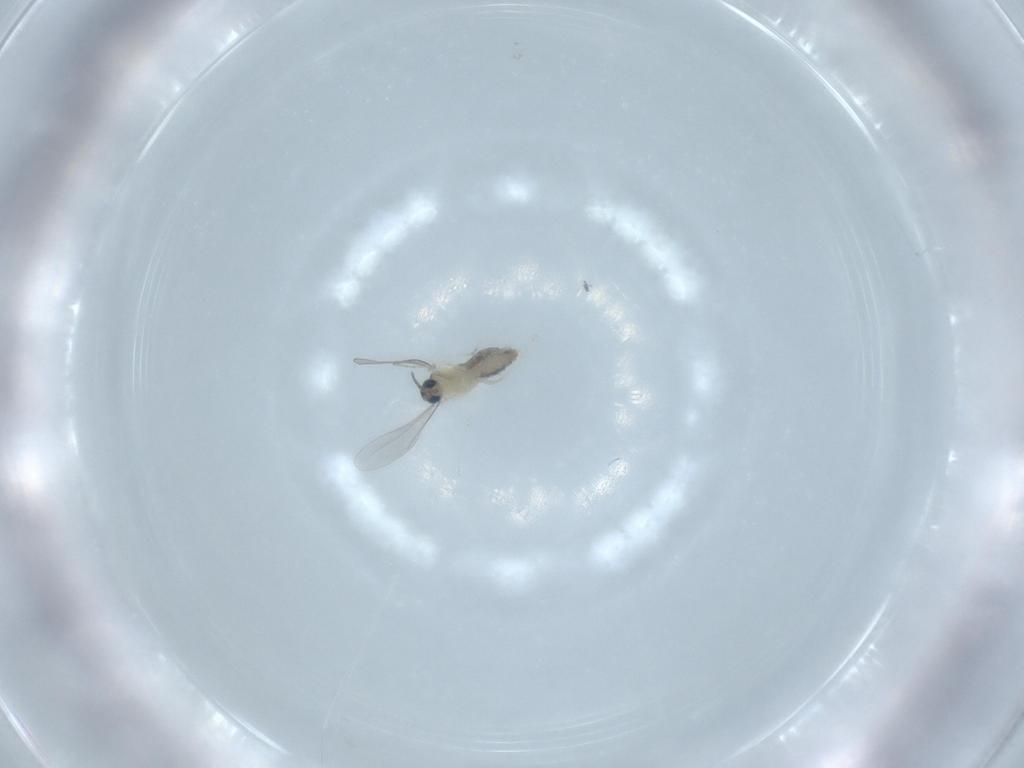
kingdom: Animalia
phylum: Arthropoda
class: Insecta
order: Diptera
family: Cecidomyiidae
